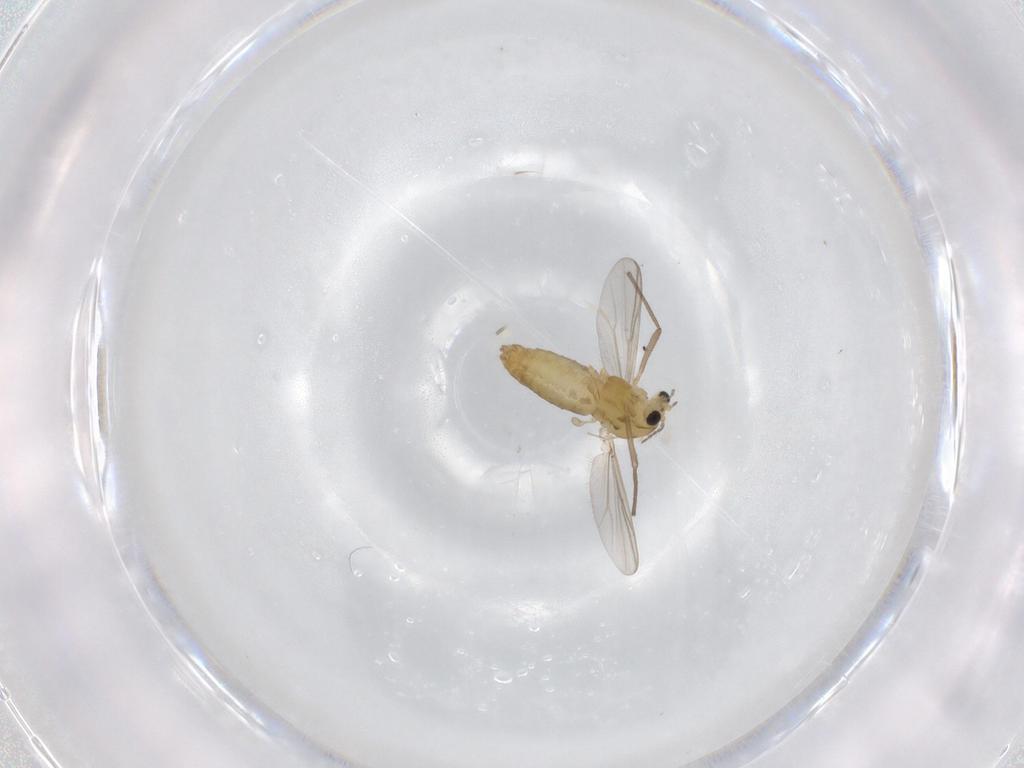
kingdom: Animalia
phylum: Arthropoda
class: Insecta
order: Diptera
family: Chironomidae
